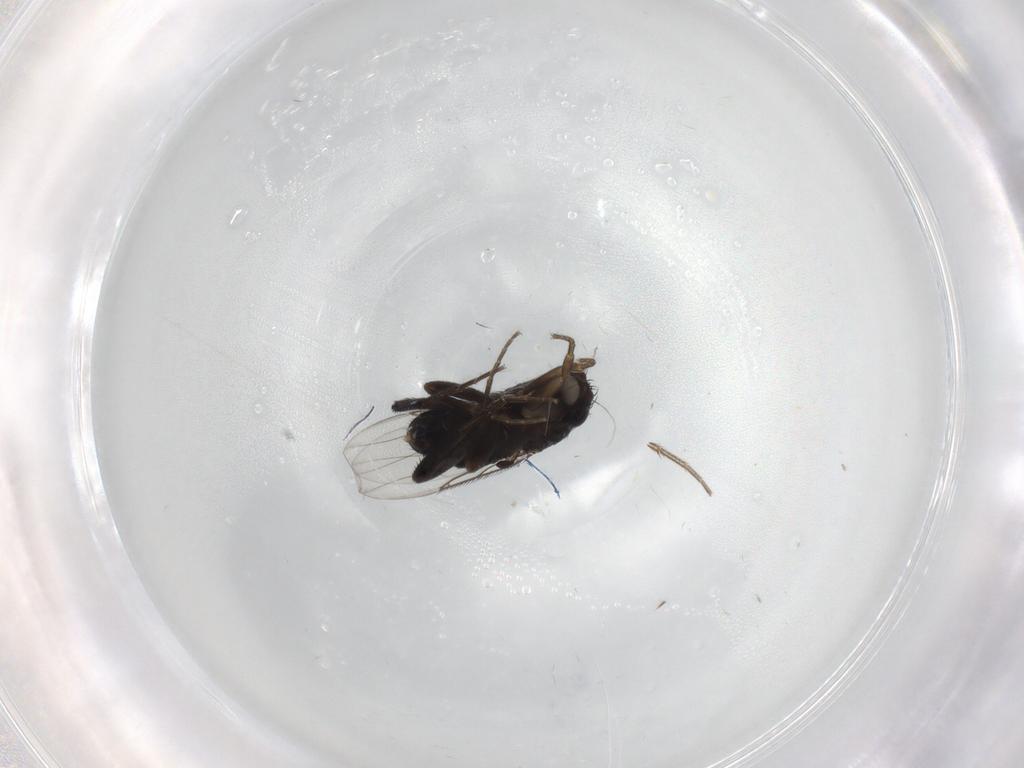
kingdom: Animalia
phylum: Arthropoda
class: Insecta
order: Diptera
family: Phoridae
